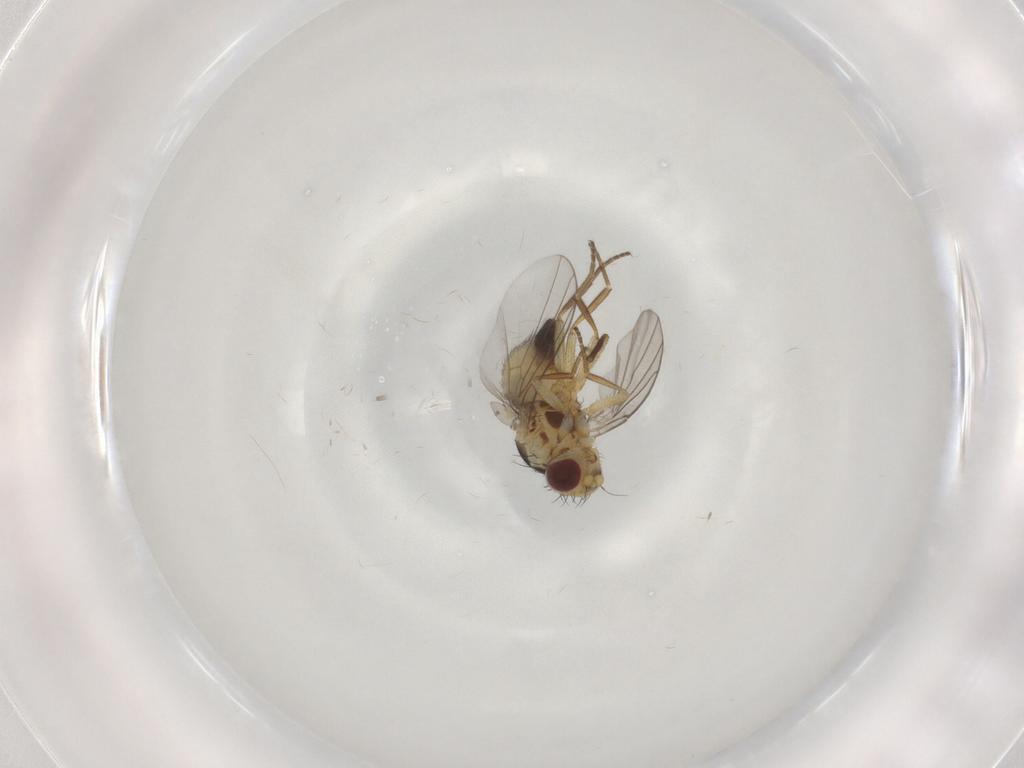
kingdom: Animalia
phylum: Arthropoda
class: Insecta
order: Diptera
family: Agromyzidae
